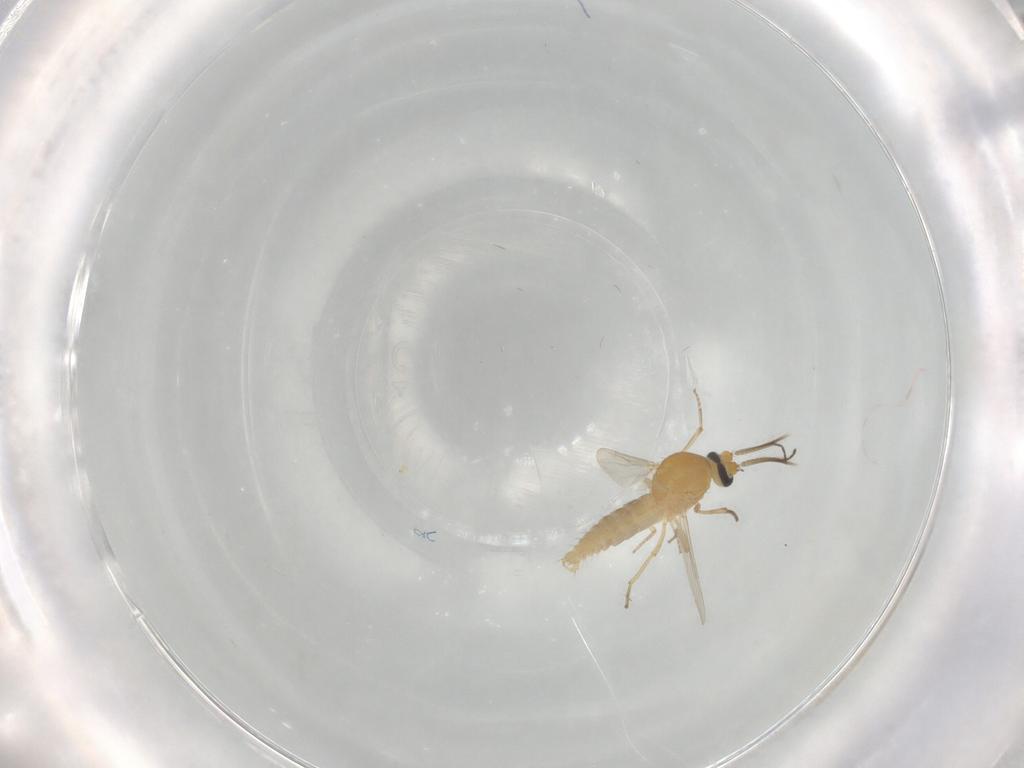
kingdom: Animalia
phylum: Arthropoda
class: Insecta
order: Diptera
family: Ceratopogonidae
